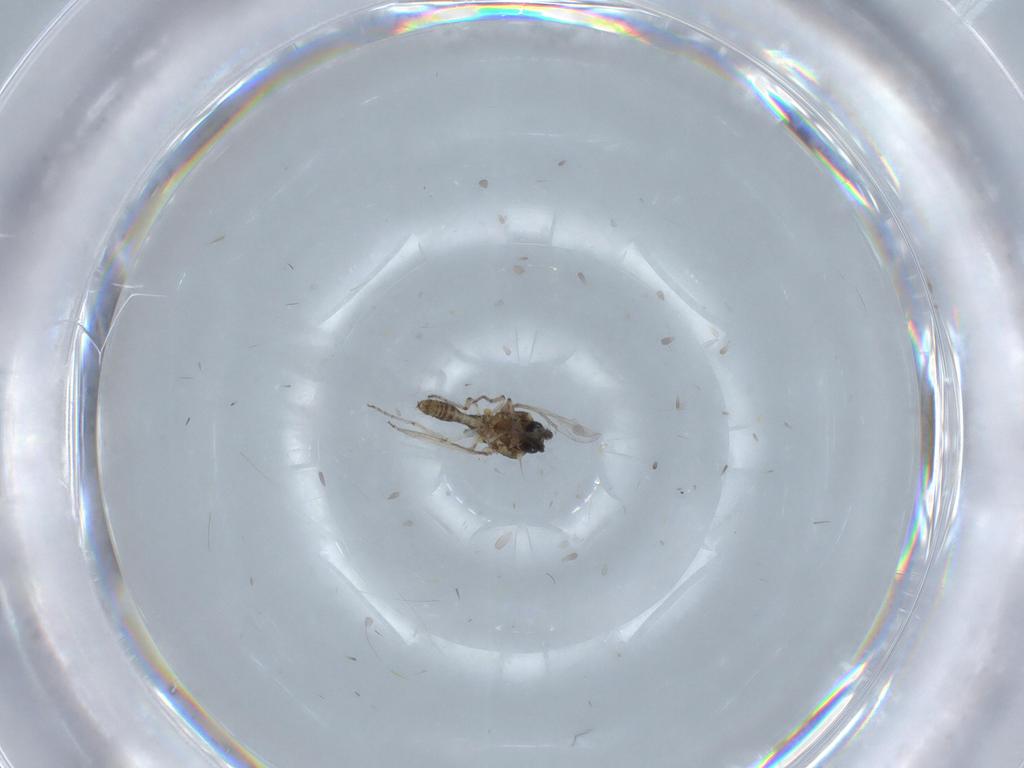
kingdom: Animalia
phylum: Arthropoda
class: Insecta
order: Diptera
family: Ceratopogonidae
